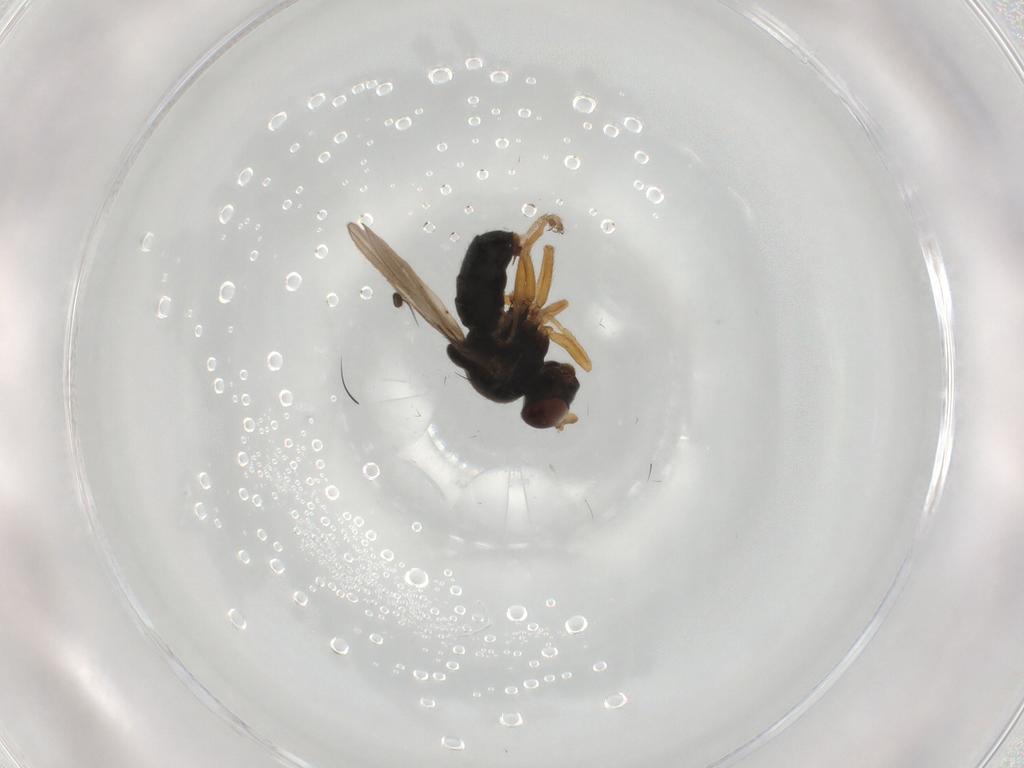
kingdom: Animalia
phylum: Arthropoda
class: Insecta
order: Diptera
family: Ephydridae
